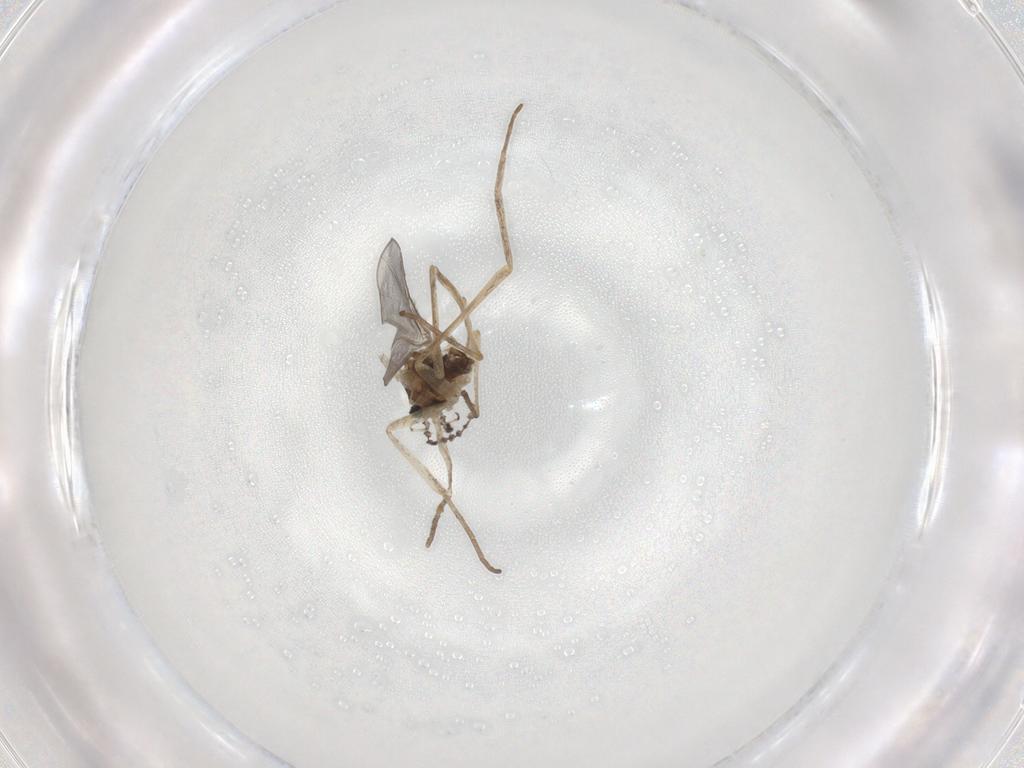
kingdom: Animalia
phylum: Arthropoda
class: Insecta
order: Diptera
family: Cecidomyiidae
